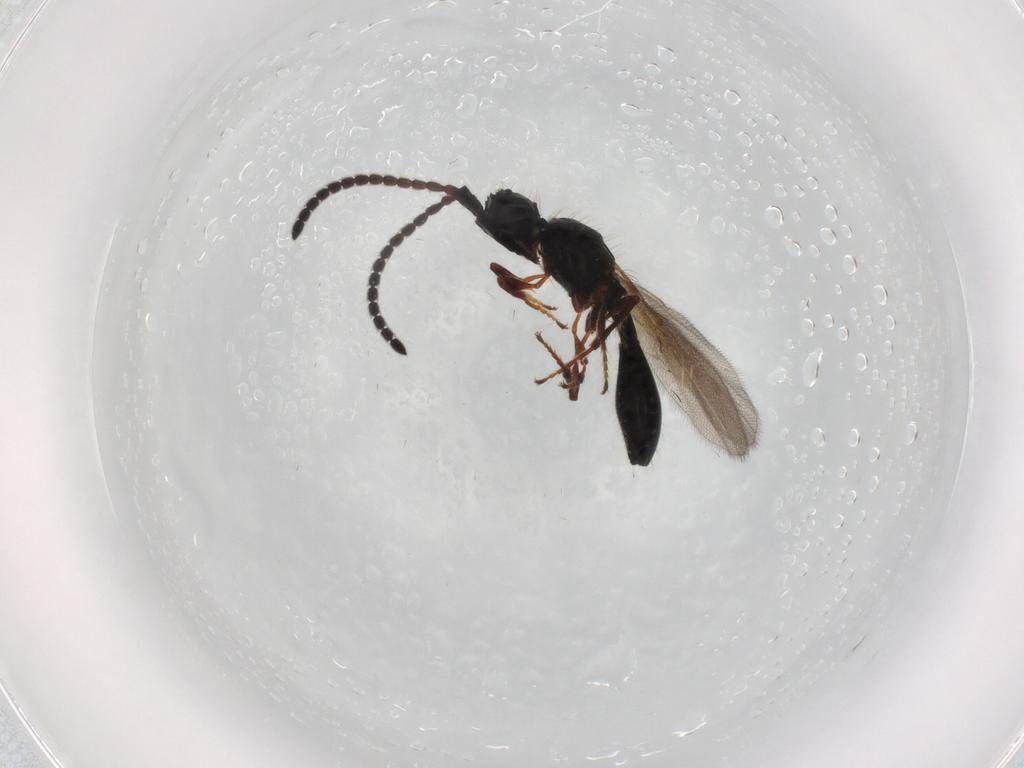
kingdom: Animalia
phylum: Arthropoda
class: Insecta
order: Hymenoptera
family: Diapriidae
